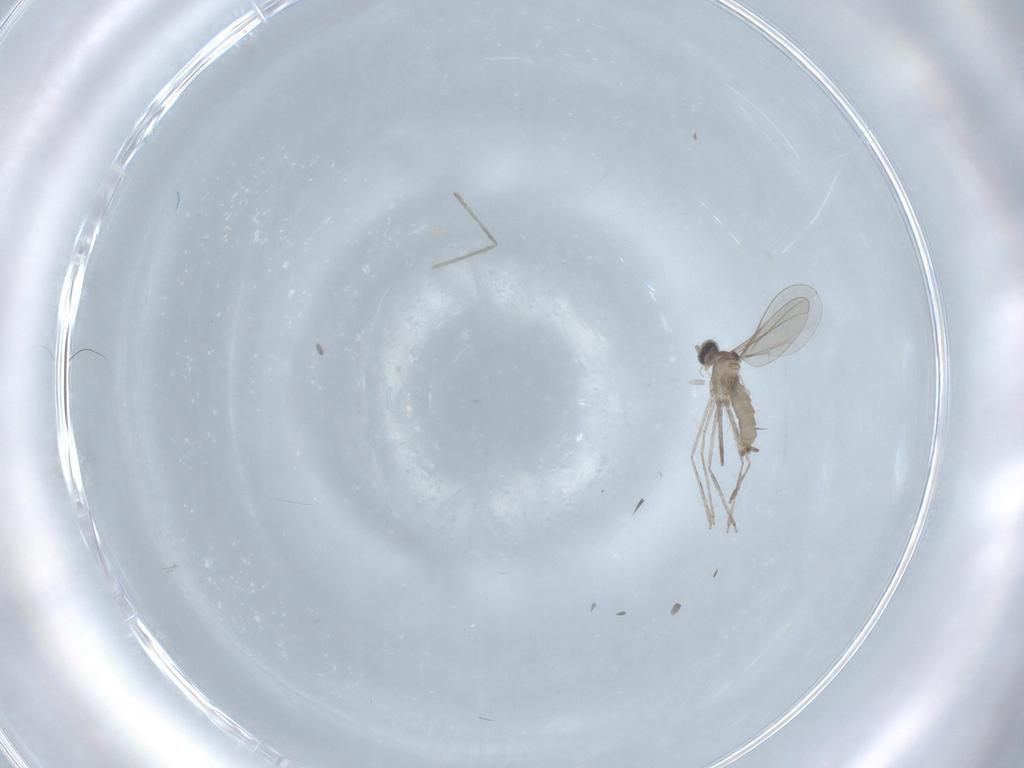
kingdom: Animalia
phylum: Arthropoda
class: Insecta
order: Diptera
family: Cecidomyiidae
